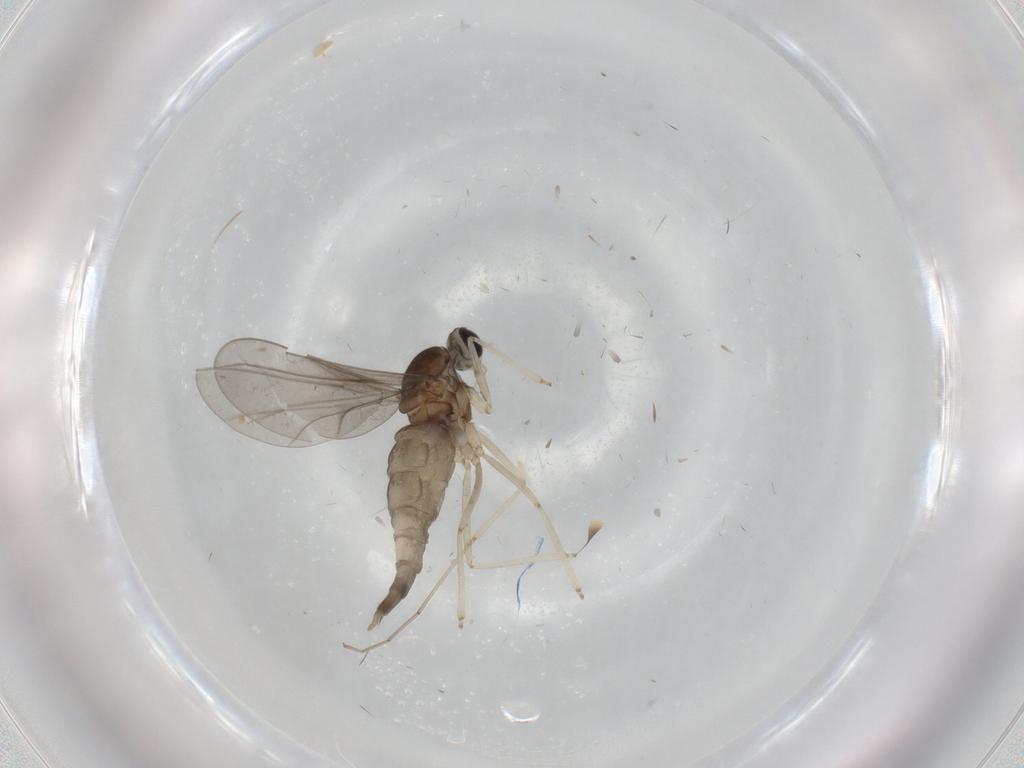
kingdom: Animalia
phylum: Arthropoda
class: Insecta
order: Diptera
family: Cecidomyiidae
